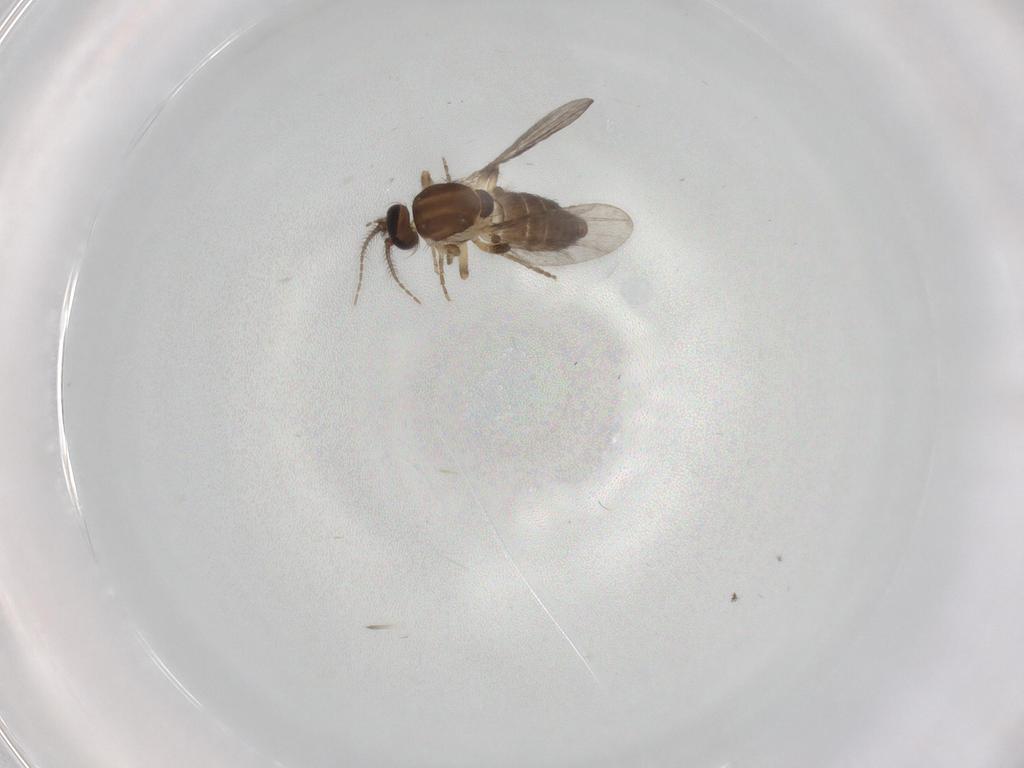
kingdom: Animalia
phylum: Arthropoda
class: Insecta
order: Diptera
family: Ceratopogonidae
